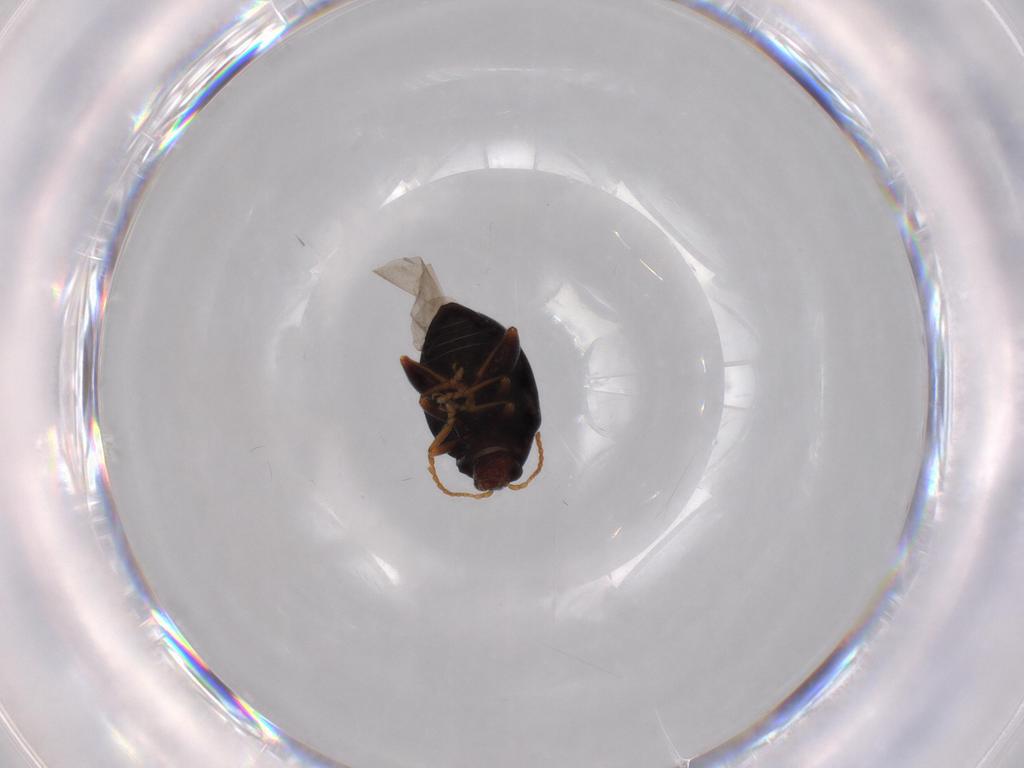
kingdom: Animalia
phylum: Arthropoda
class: Insecta
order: Coleoptera
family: Chrysomelidae
